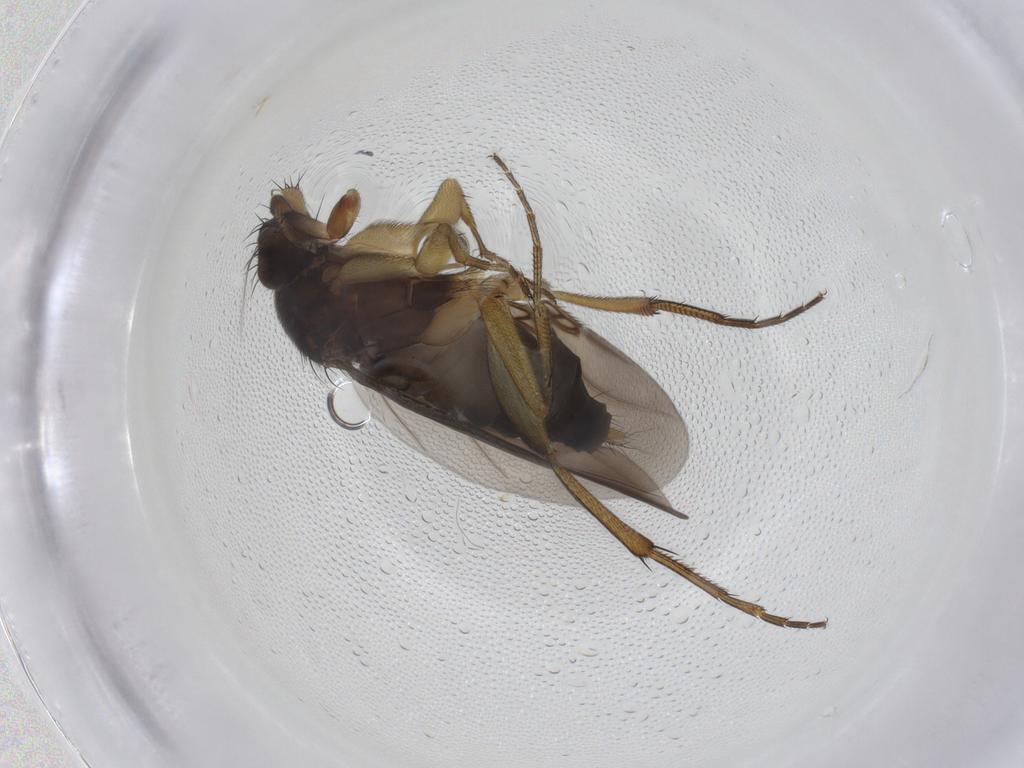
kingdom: Animalia
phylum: Arthropoda
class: Insecta
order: Diptera
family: Phoridae
